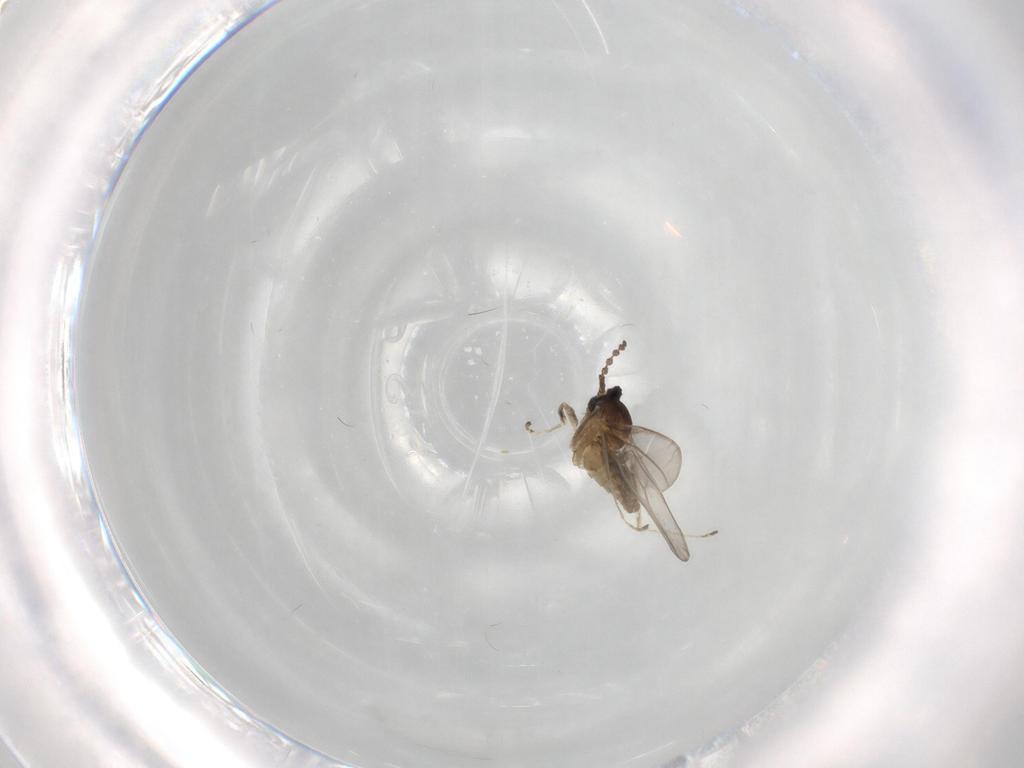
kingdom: Animalia
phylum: Arthropoda
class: Insecta
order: Diptera
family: Cecidomyiidae
